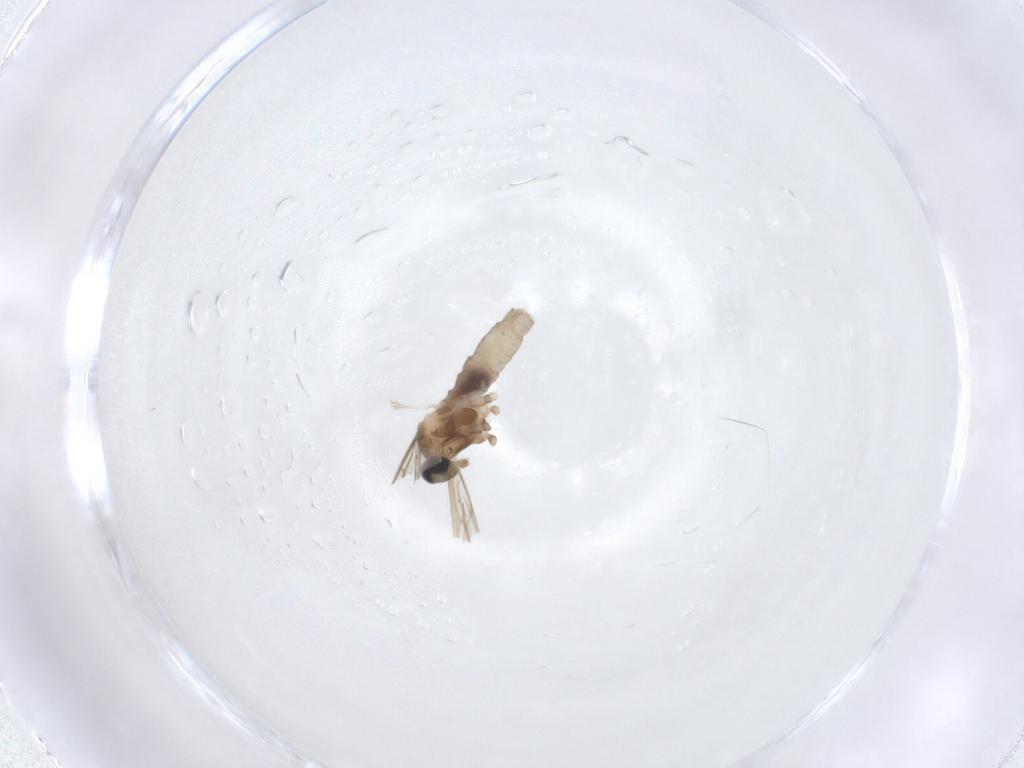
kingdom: Animalia
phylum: Arthropoda
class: Insecta
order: Diptera
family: Cecidomyiidae
